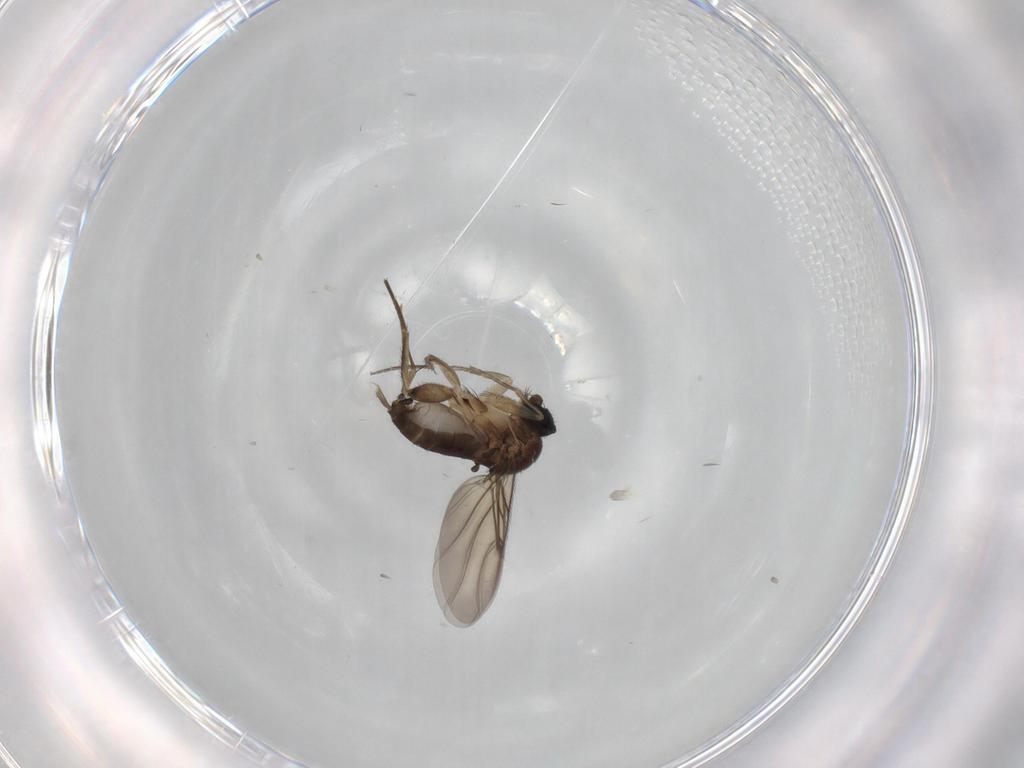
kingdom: Animalia
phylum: Arthropoda
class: Insecta
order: Diptera
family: Phoridae
